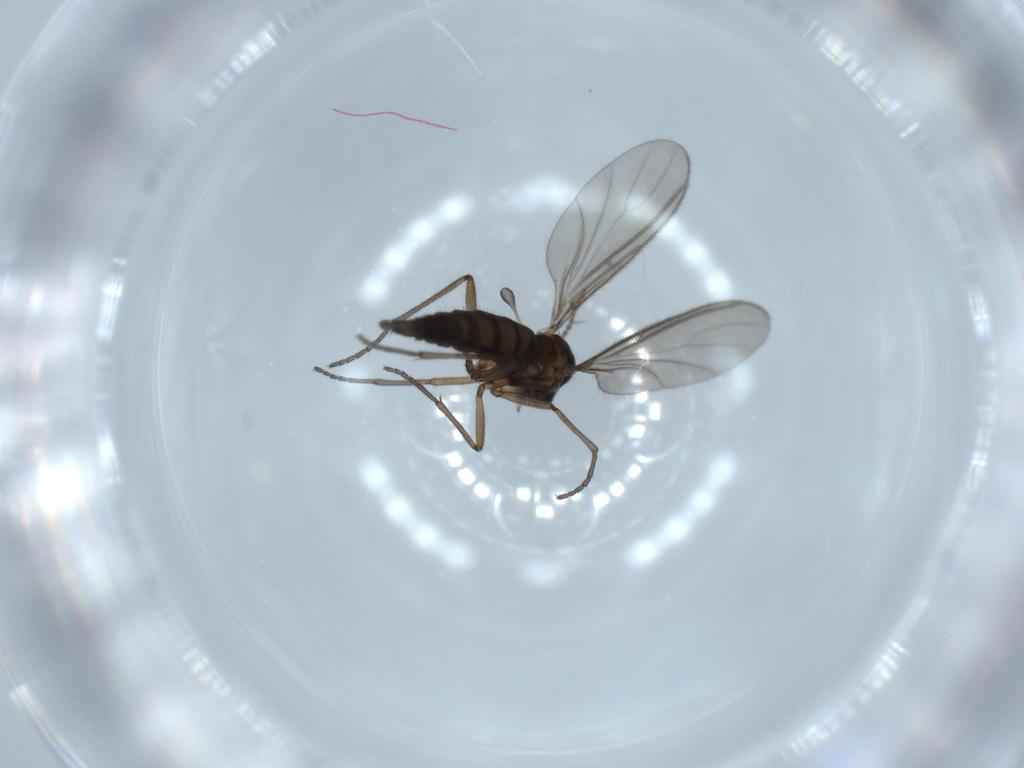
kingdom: Animalia
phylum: Arthropoda
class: Insecta
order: Diptera
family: Sciaridae
